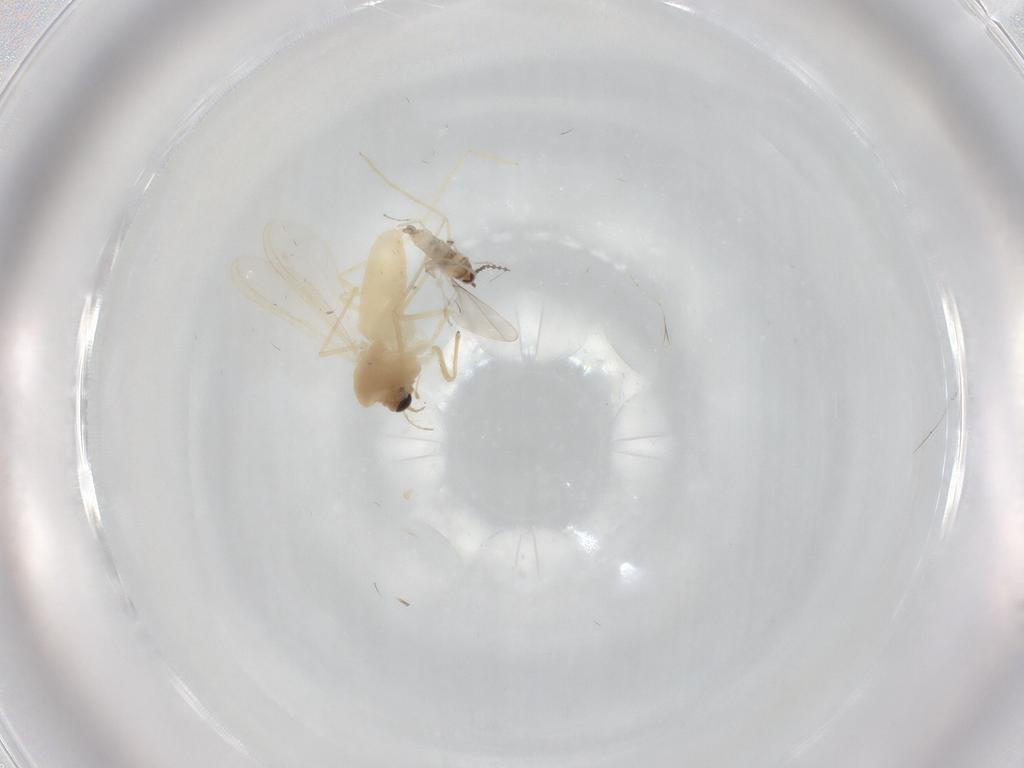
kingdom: Animalia
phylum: Arthropoda
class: Insecta
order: Diptera
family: Cecidomyiidae
